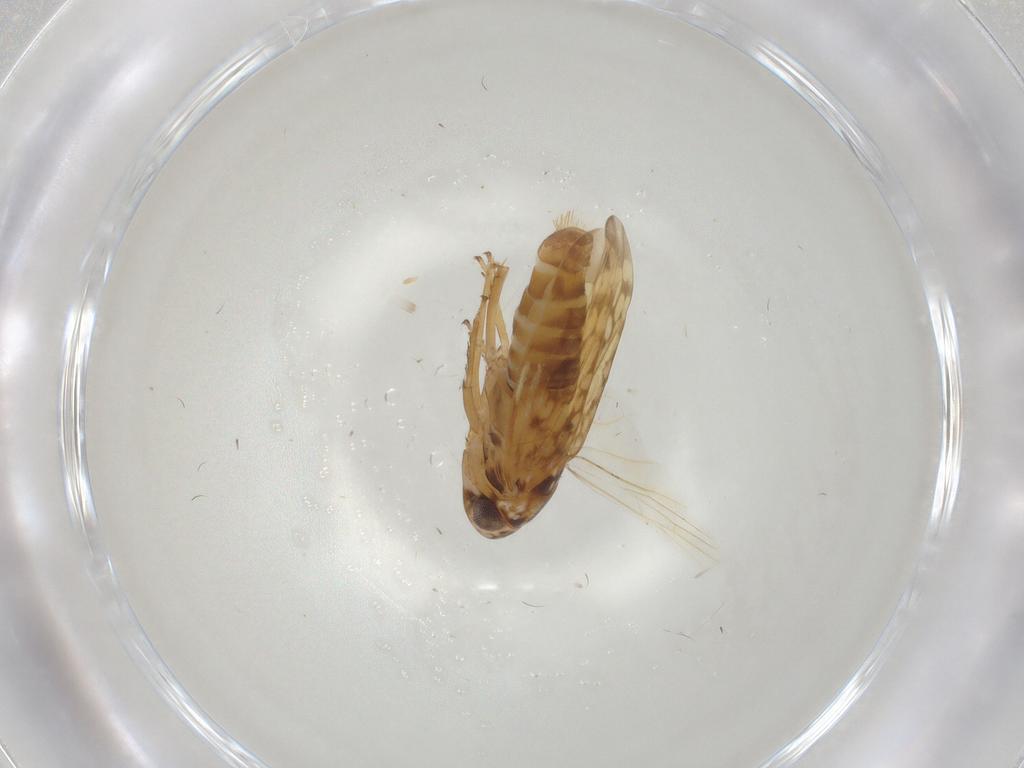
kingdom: Animalia
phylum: Arthropoda
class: Insecta
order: Hemiptera
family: Cicadellidae
